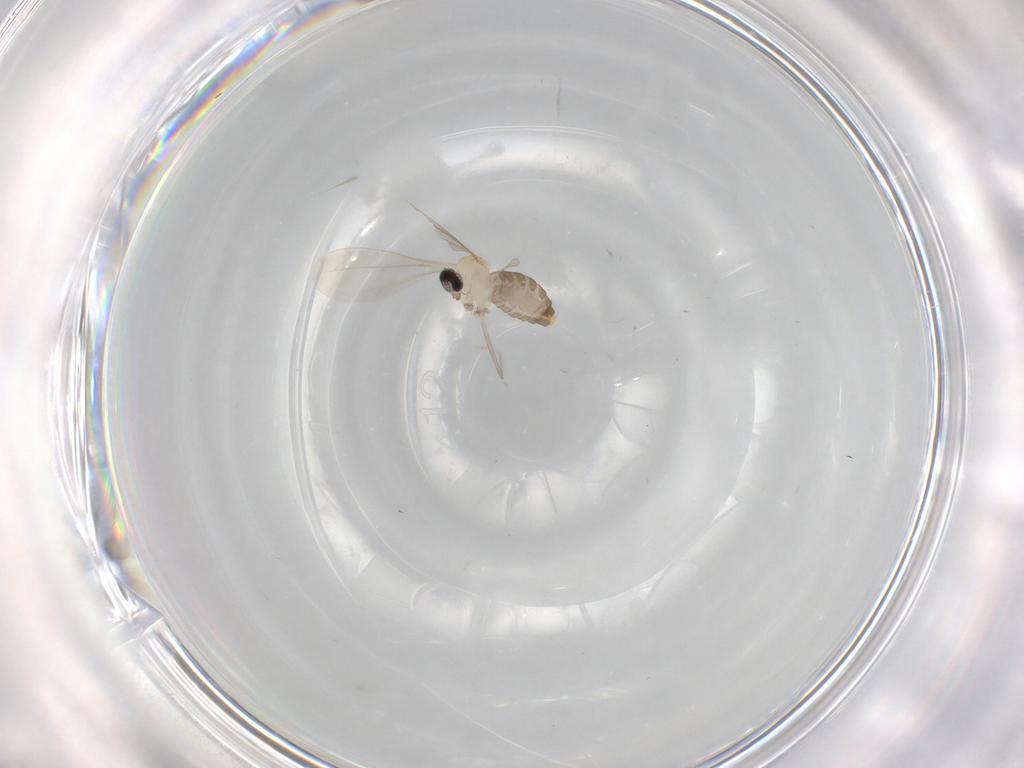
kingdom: Animalia
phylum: Arthropoda
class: Insecta
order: Diptera
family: Cecidomyiidae
